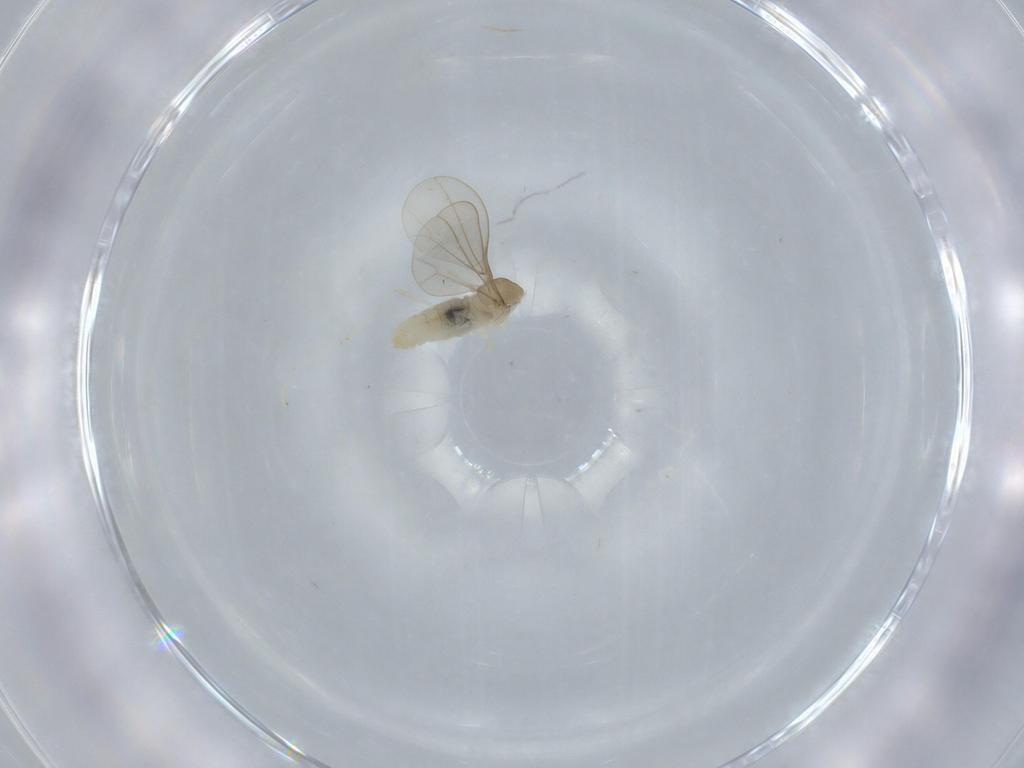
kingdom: Animalia
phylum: Arthropoda
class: Insecta
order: Diptera
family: Cecidomyiidae
